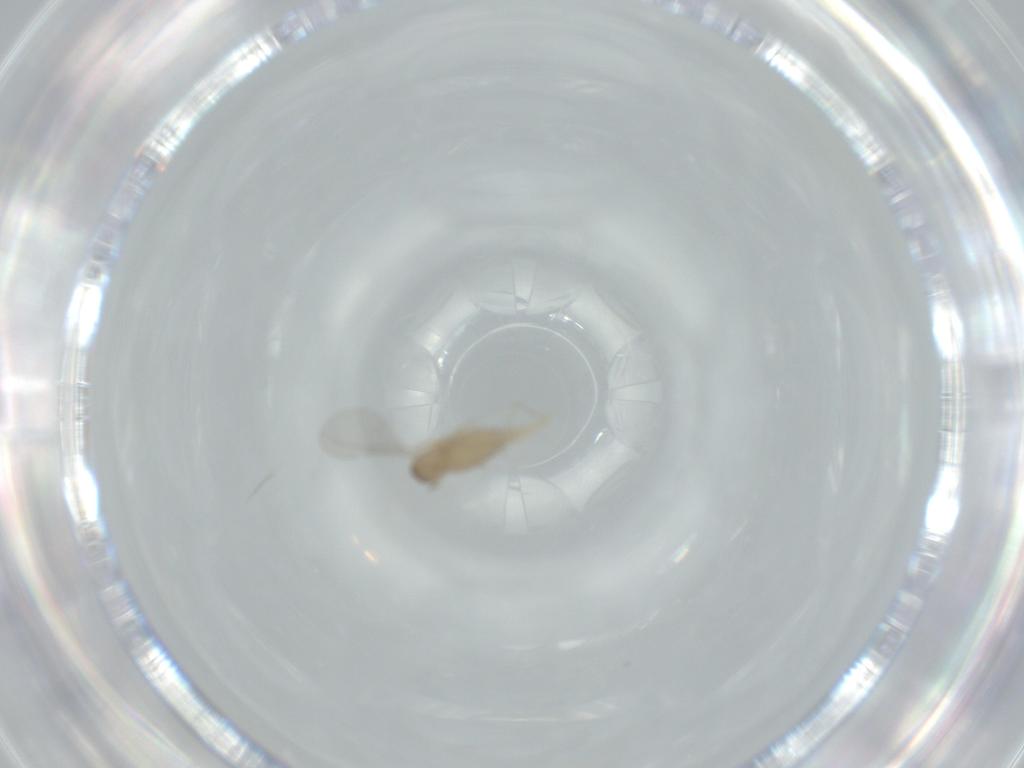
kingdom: Animalia
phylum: Arthropoda
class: Insecta
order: Diptera
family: Cecidomyiidae
